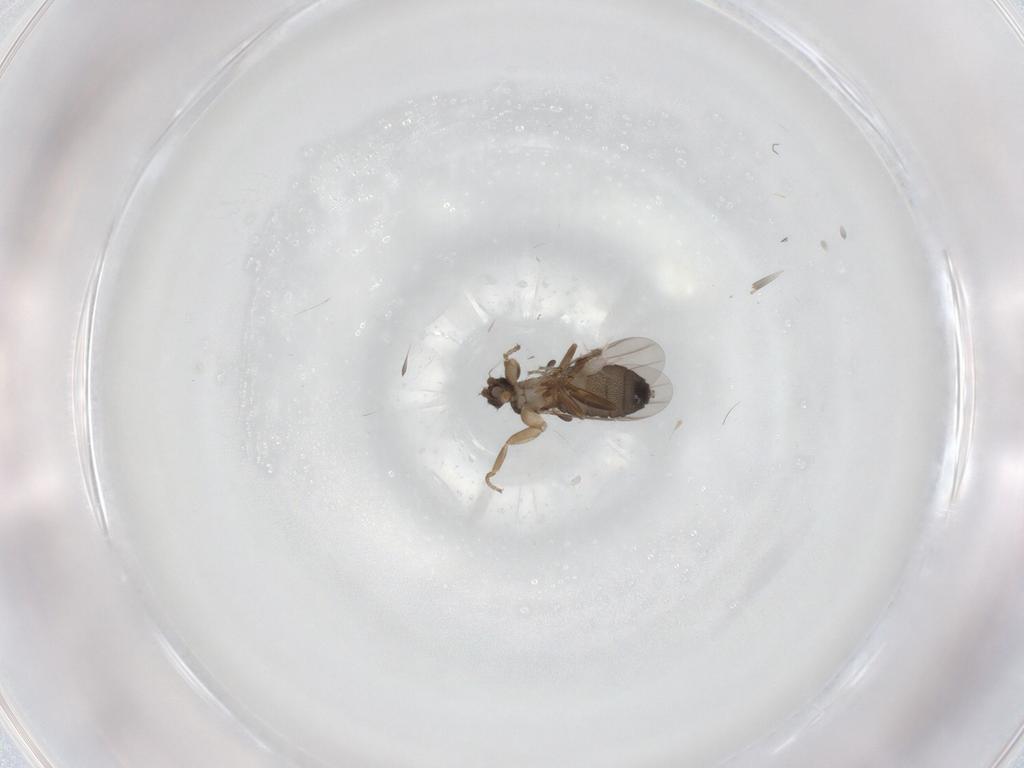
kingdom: Animalia
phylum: Arthropoda
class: Insecta
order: Diptera
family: Phoridae
